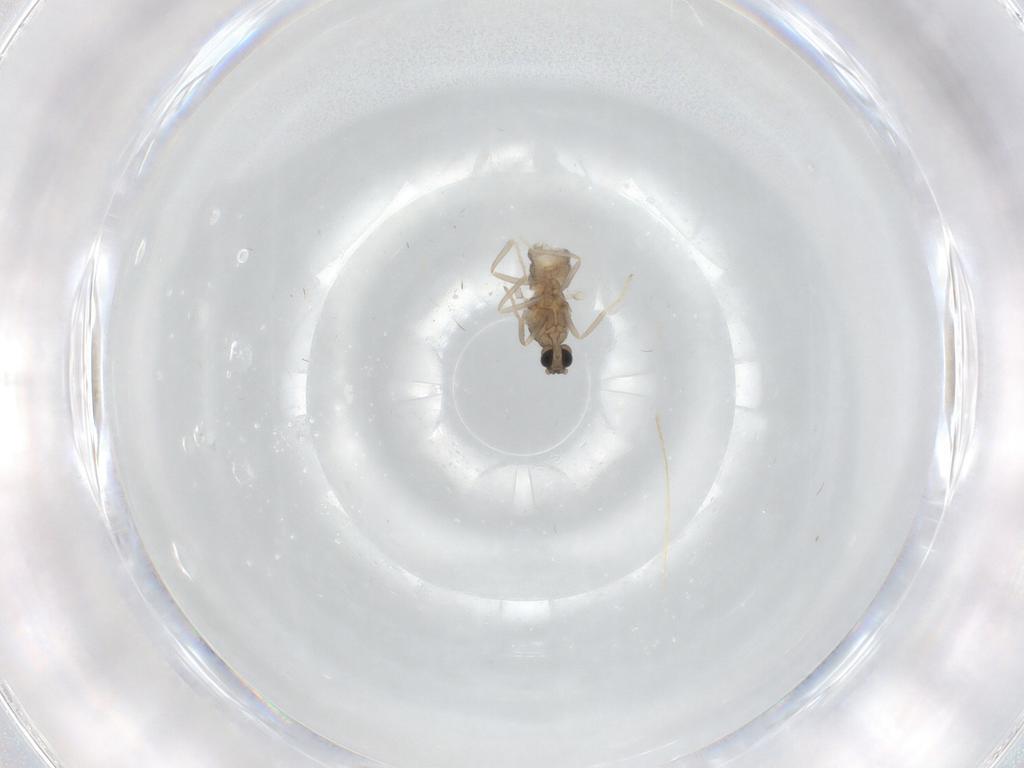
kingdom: Animalia
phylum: Arthropoda
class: Insecta
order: Diptera
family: Cecidomyiidae
